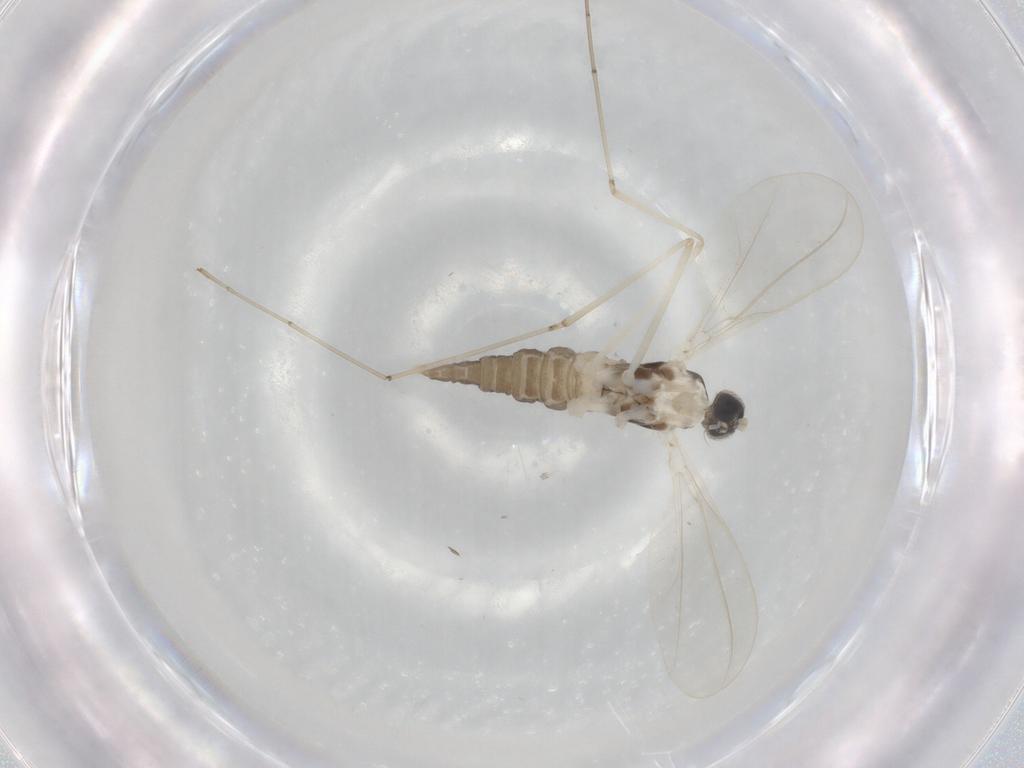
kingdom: Animalia
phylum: Arthropoda
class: Insecta
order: Diptera
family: Cecidomyiidae
